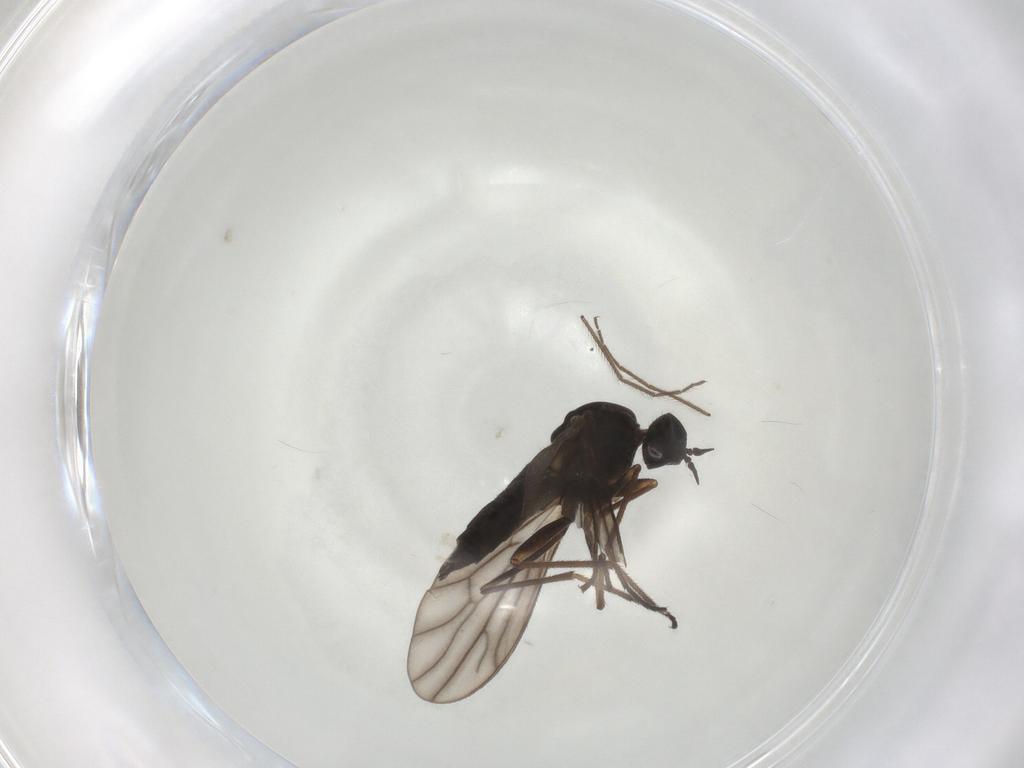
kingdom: Animalia
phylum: Arthropoda
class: Insecta
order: Diptera
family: Empididae
